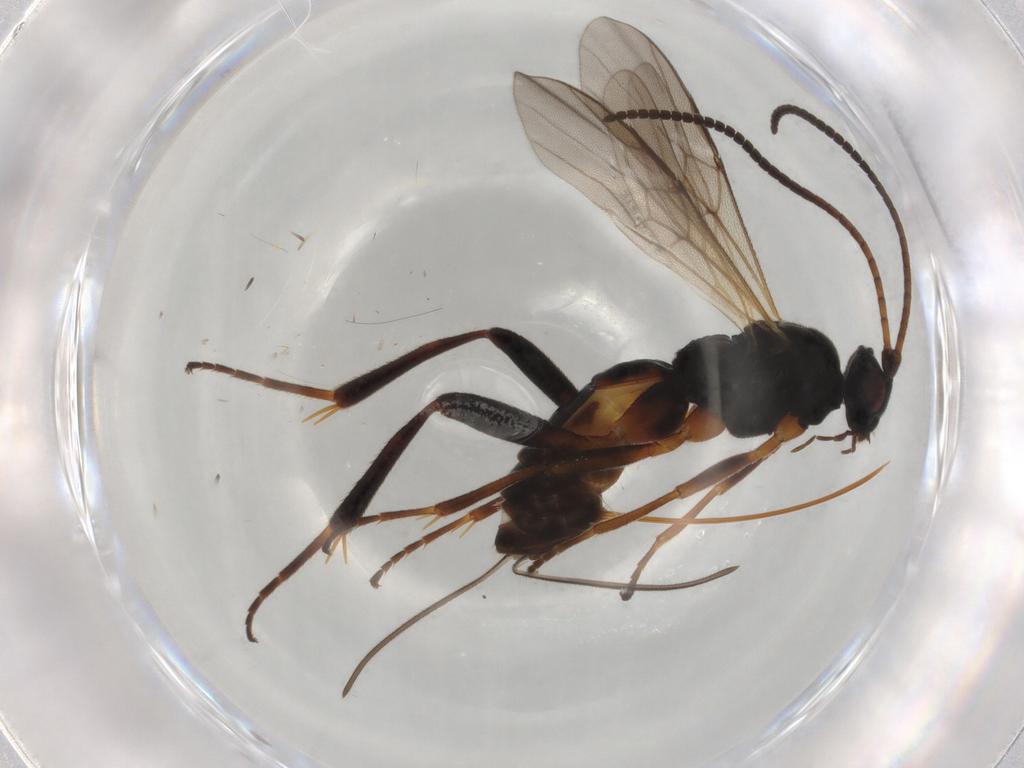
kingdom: Animalia
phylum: Arthropoda
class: Insecta
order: Hymenoptera
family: Braconidae
